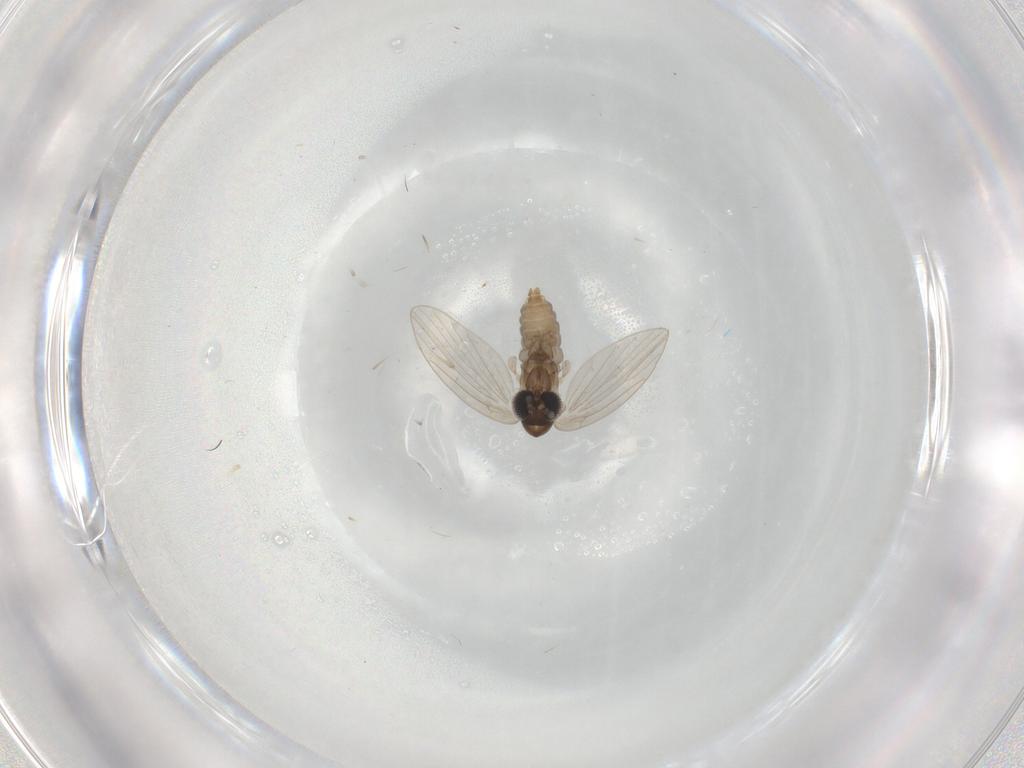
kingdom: Animalia
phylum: Arthropoda
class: Insecta
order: Diptera
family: Psychodidae
